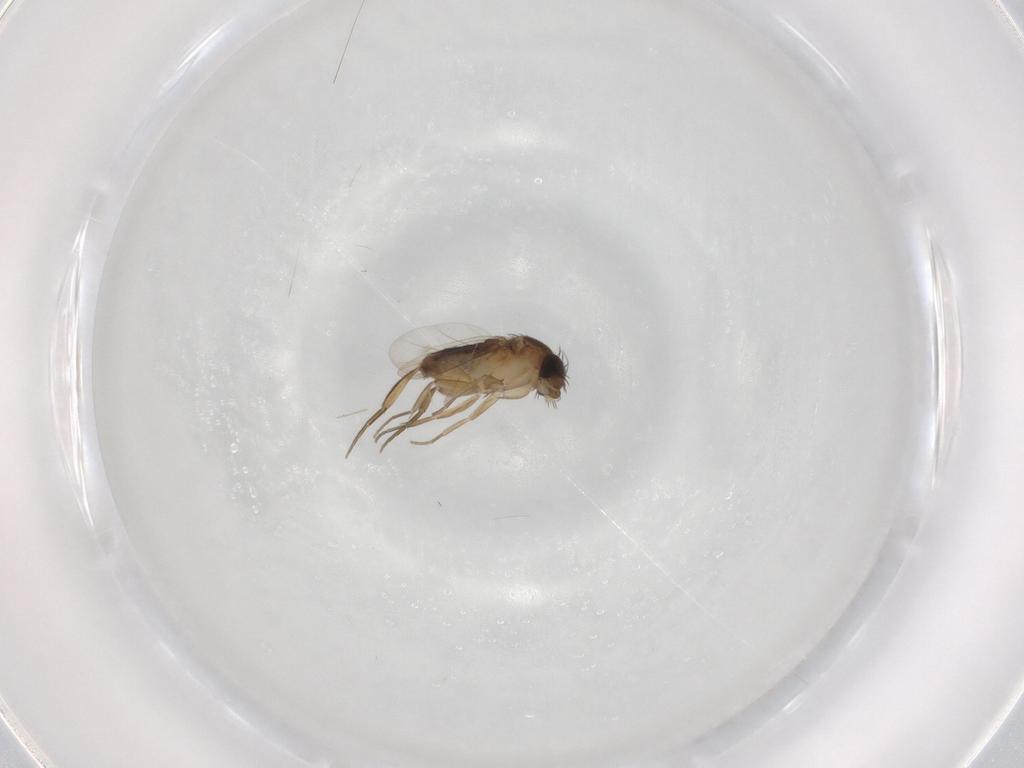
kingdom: Animalia
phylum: Arthropoda
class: Insecta
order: Diptera
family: Phoridae
